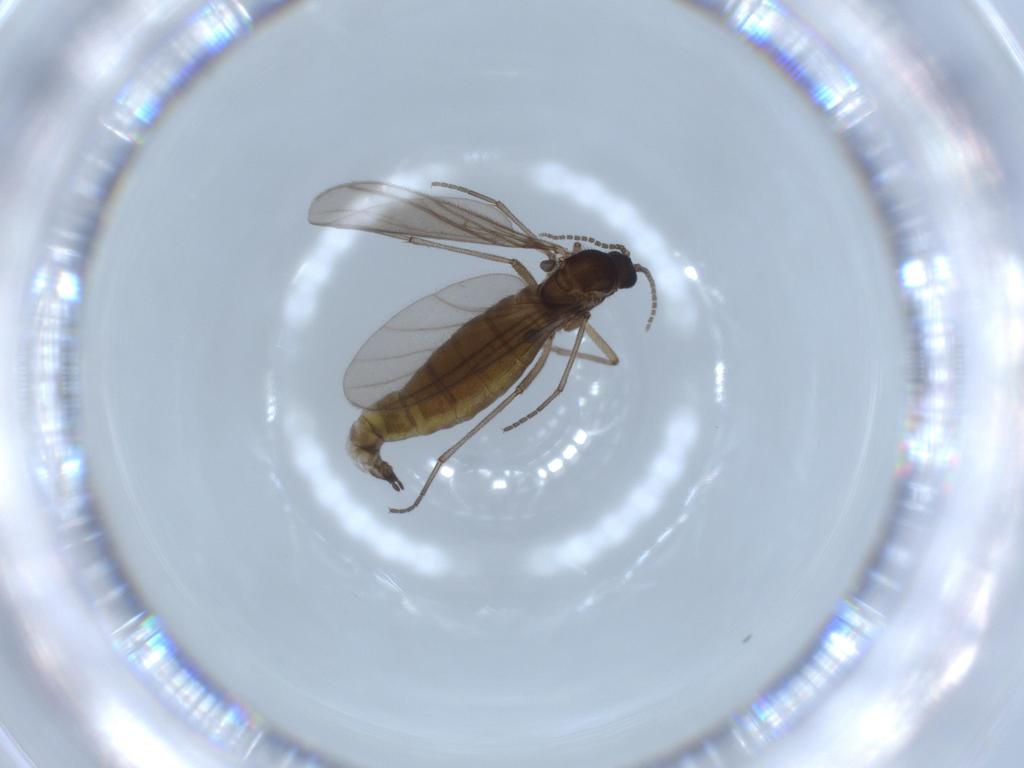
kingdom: Animalia
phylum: Arthropoda
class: Insecta
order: Diptera
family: Sciaridae
